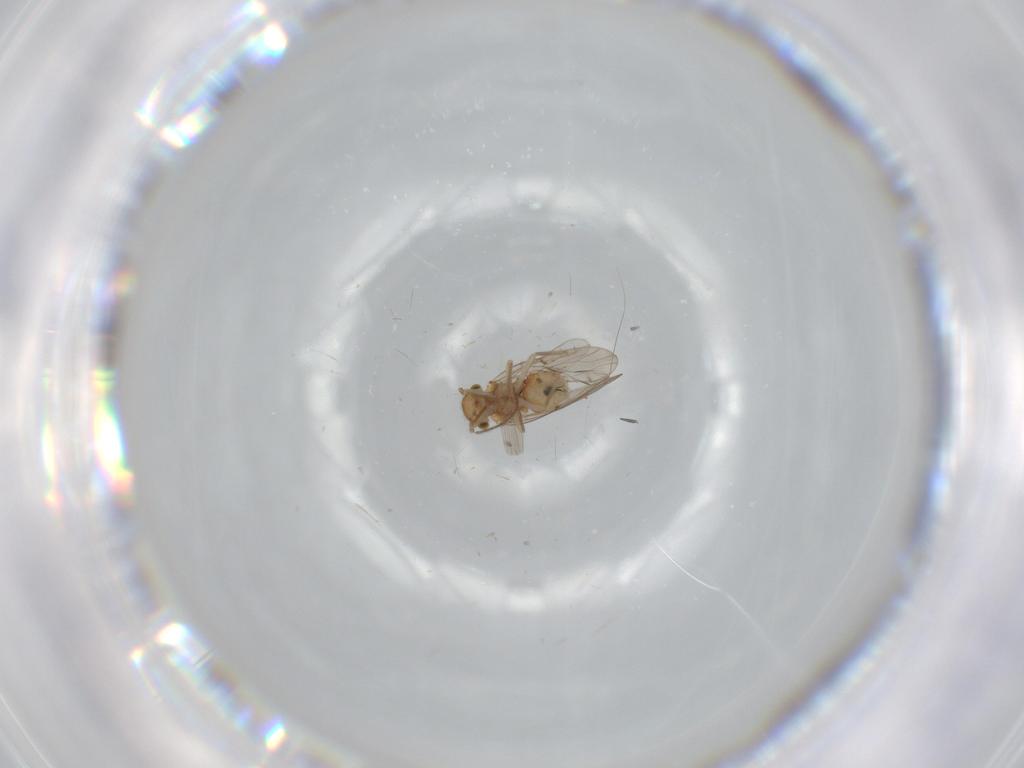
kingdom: Animalia
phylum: Arthropoda
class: Insecta
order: Psocodea
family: Ectopsocidae
